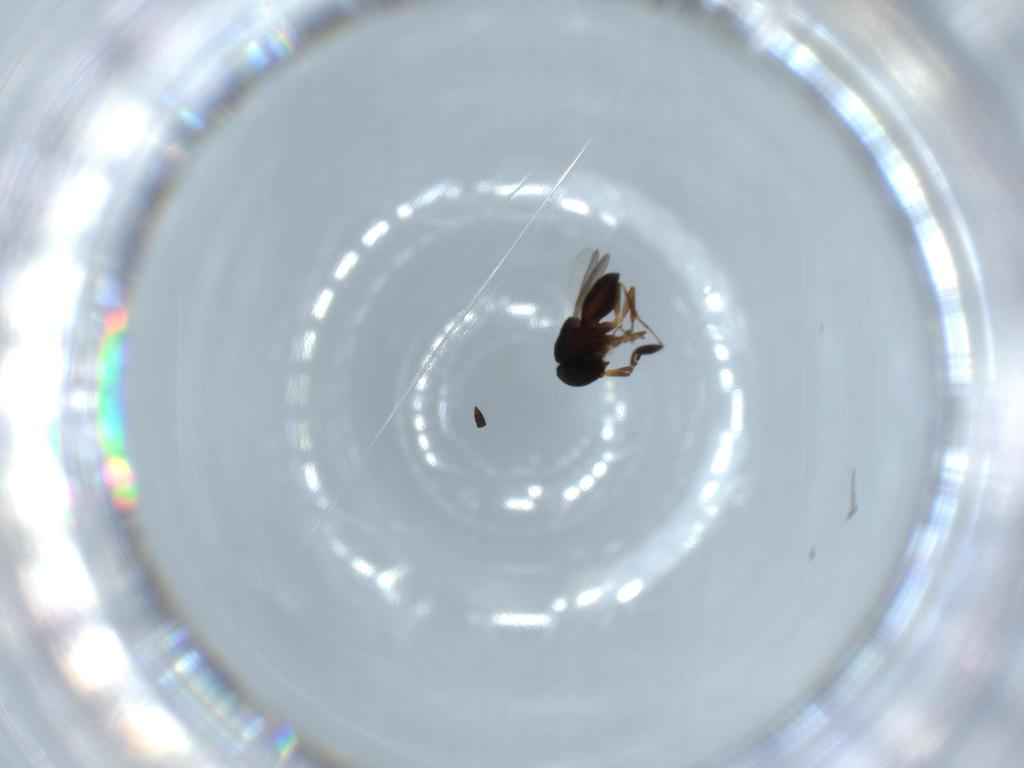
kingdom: Animalia
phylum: Arthropoda
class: Insecta
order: Hymenoptera
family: Scelionidae
